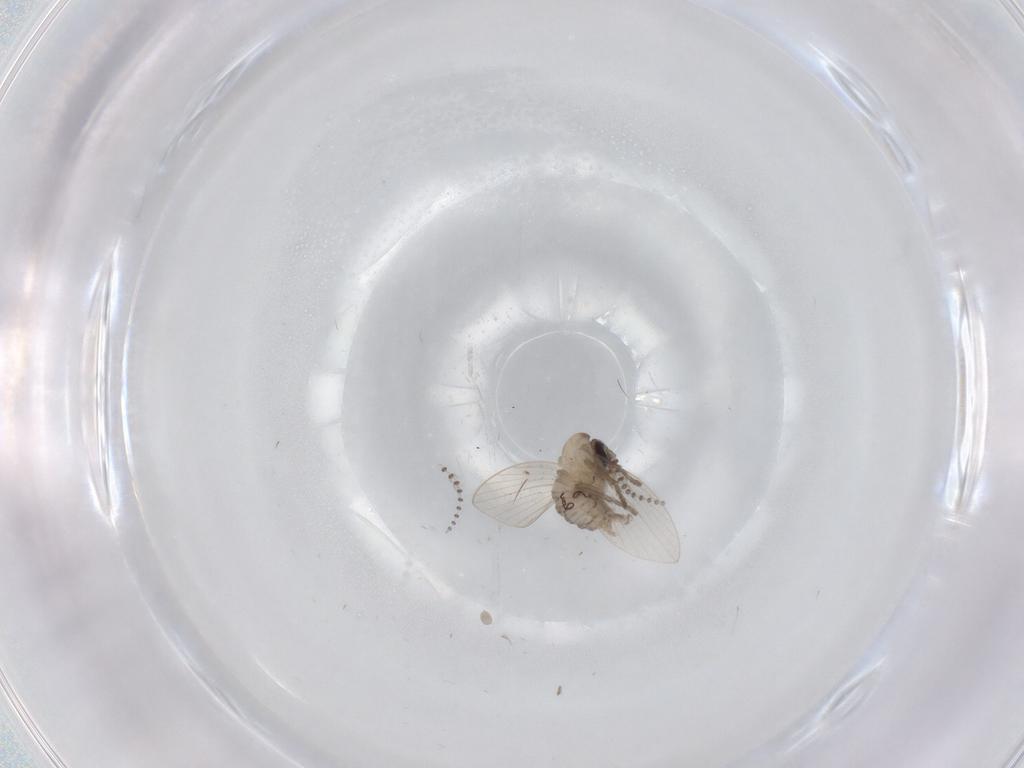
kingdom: Animalia
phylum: Arthropoda
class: Insecta
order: Diptera
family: Psychodidae
